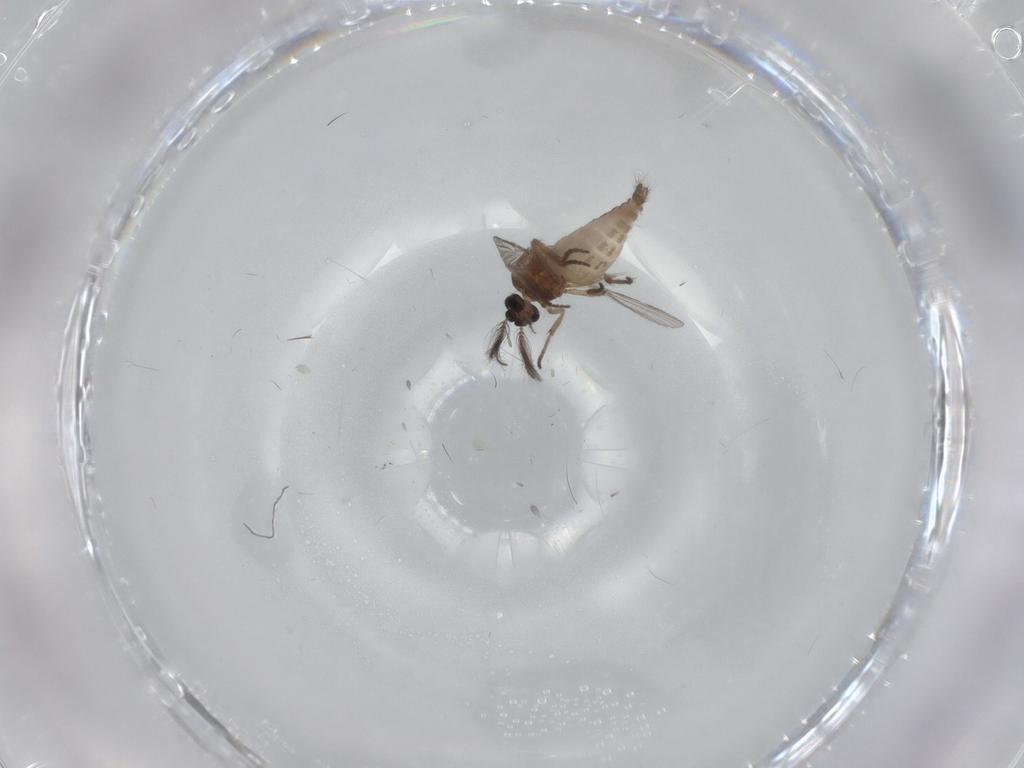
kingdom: Animalia
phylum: Arthropoda
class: Insecta
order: Diptera
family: Ceratopogonidae
